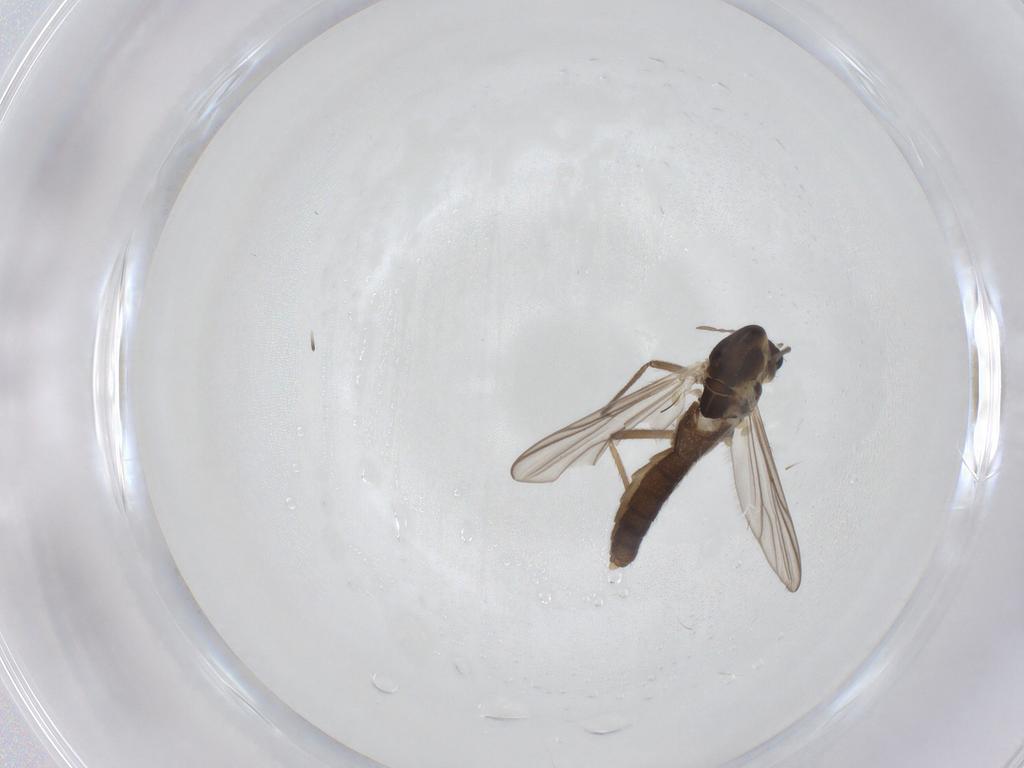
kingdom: Animalia
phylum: Arthropoda
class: Insecta
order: Diptera
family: Chironomidae
